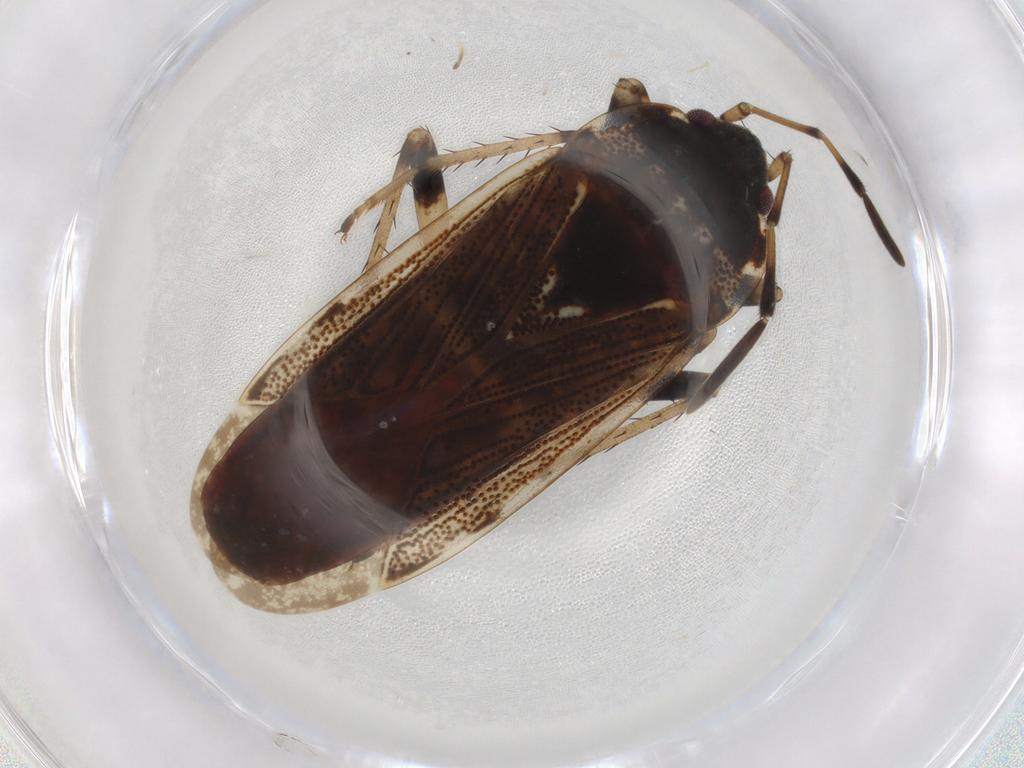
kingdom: Animalia
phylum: Arthropoda
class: Insecta
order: Hemiptera
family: Rhyparochromidae
